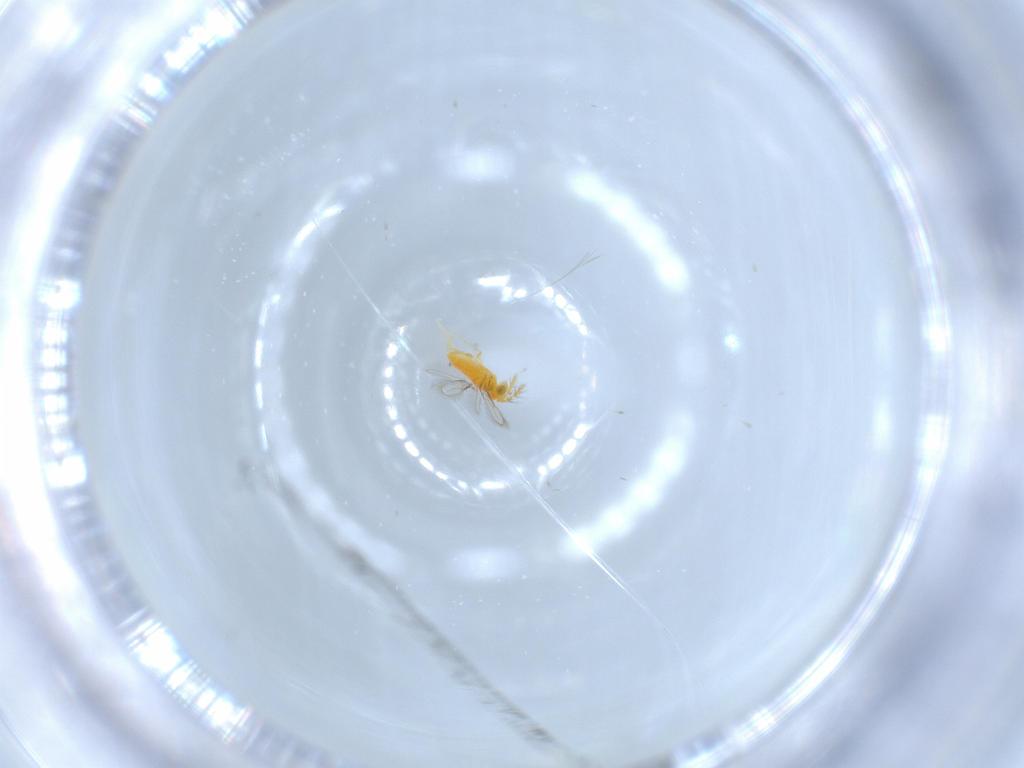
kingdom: Animalia
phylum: Arthropoda
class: Insecta
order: Hymenoptera
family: Aphelinidae
